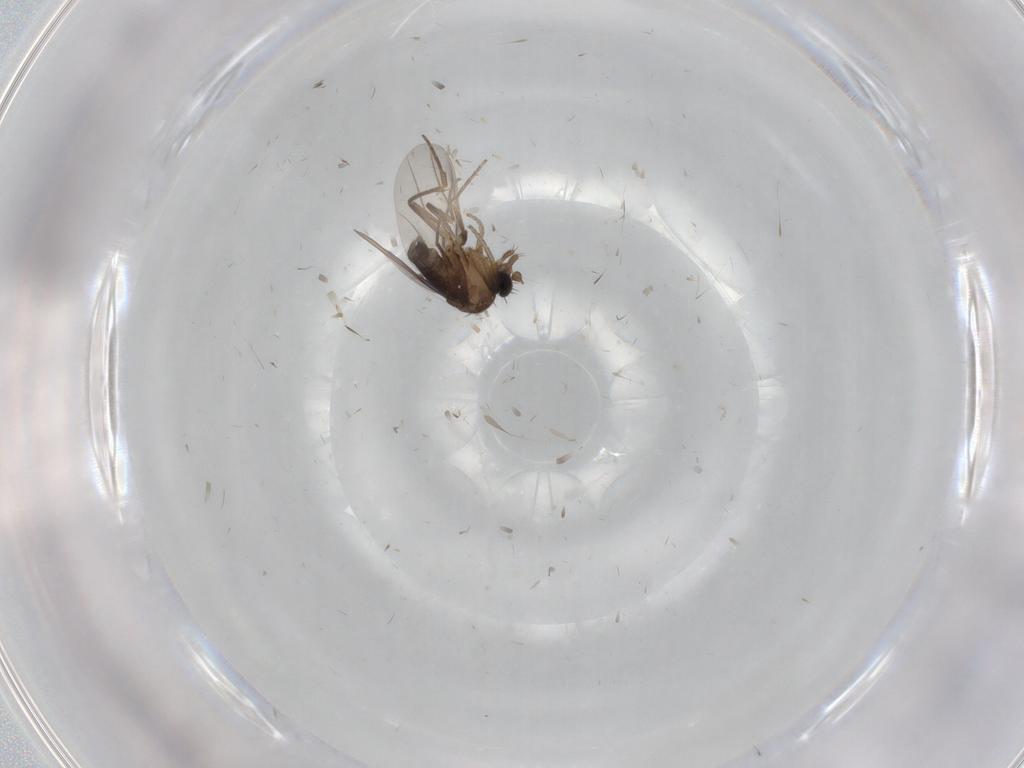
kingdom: Animalia
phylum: Arthropoda
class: Insecta
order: Diptera
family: Phoridae
